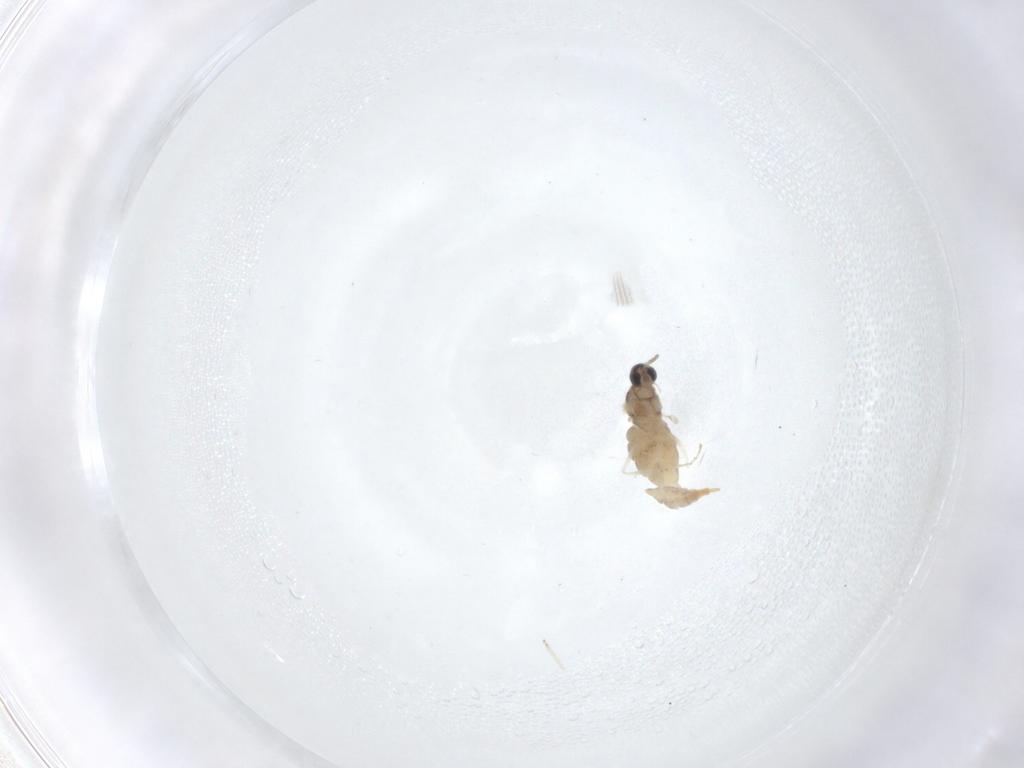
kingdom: Animalia
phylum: Arthropoda
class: Insecta
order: Diptera
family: Cecidomyiidae
